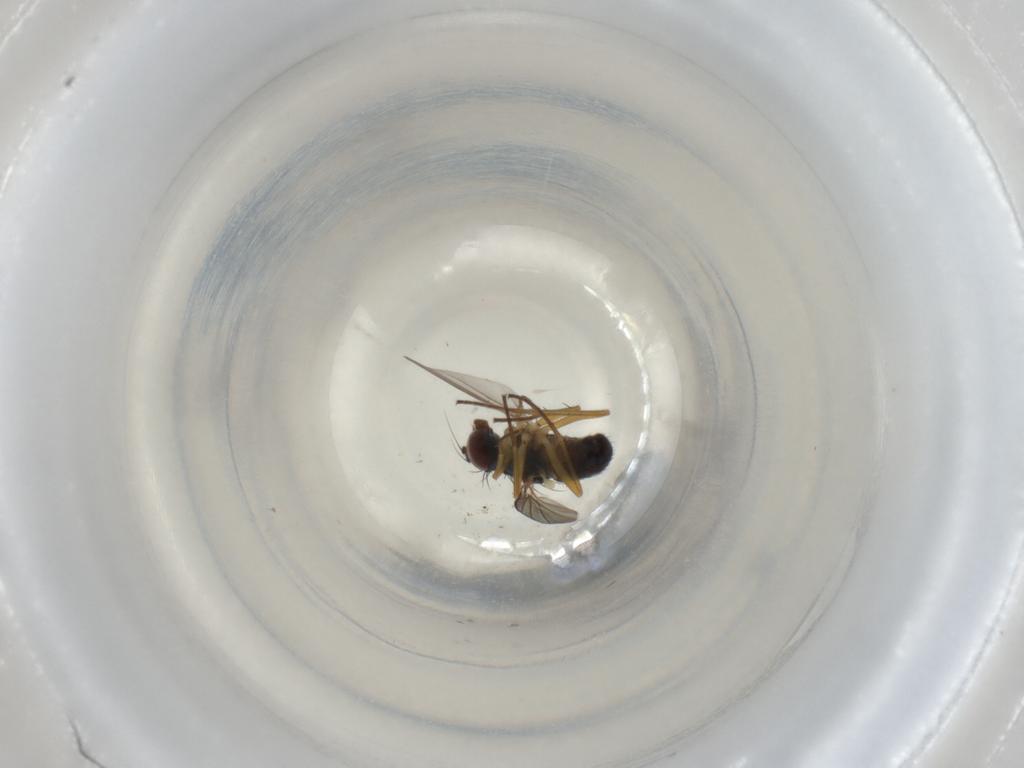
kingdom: Animalia
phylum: Arthropoda
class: Insecta
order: Diptera
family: Dolichopodidae
